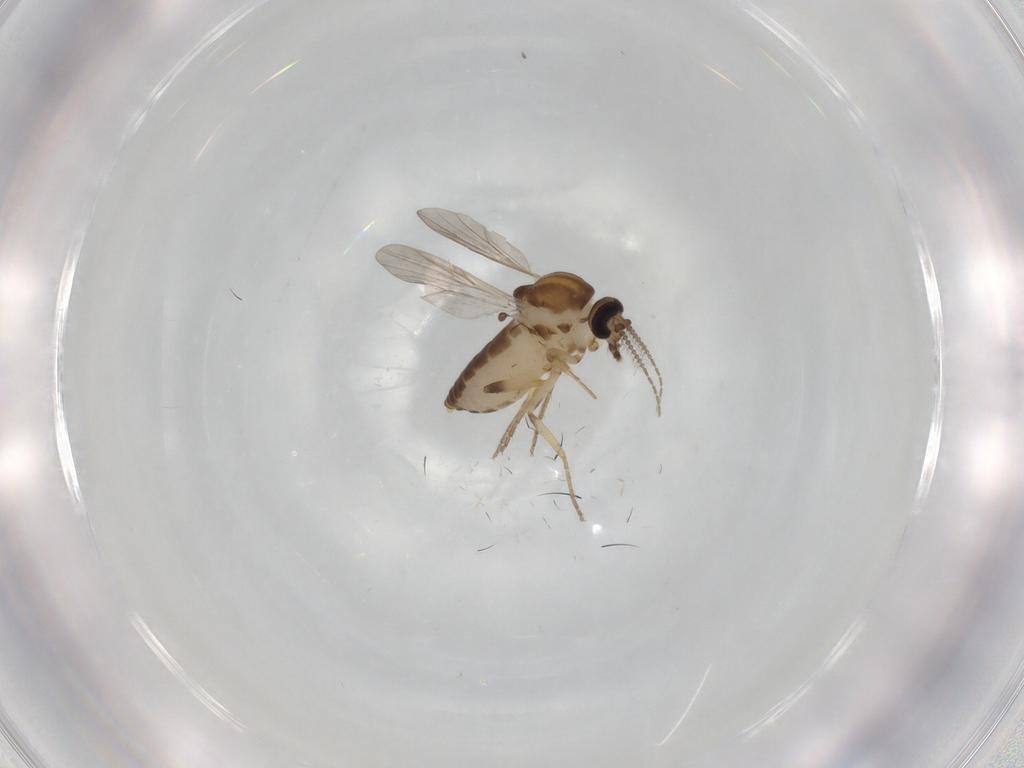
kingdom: Animalia
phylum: Arthropoda
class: Insecta
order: Diptera
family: Ceratopogonidae
